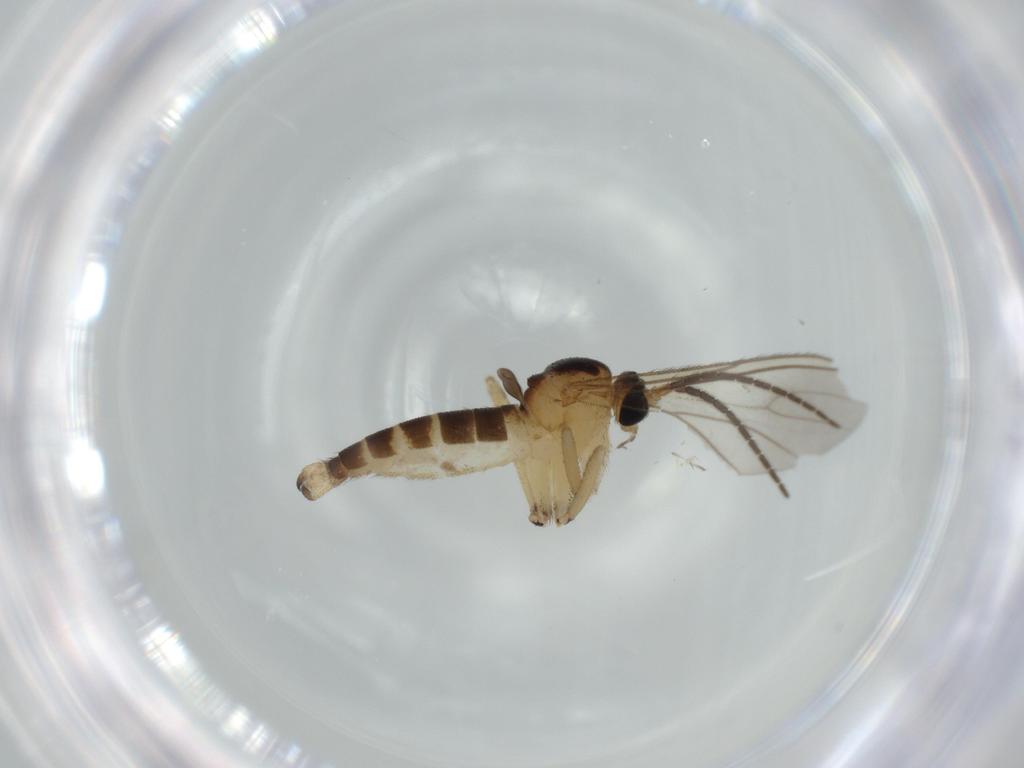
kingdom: Animalia
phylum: Arthropoda
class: Insecta
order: Diptera
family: Sciaridae
